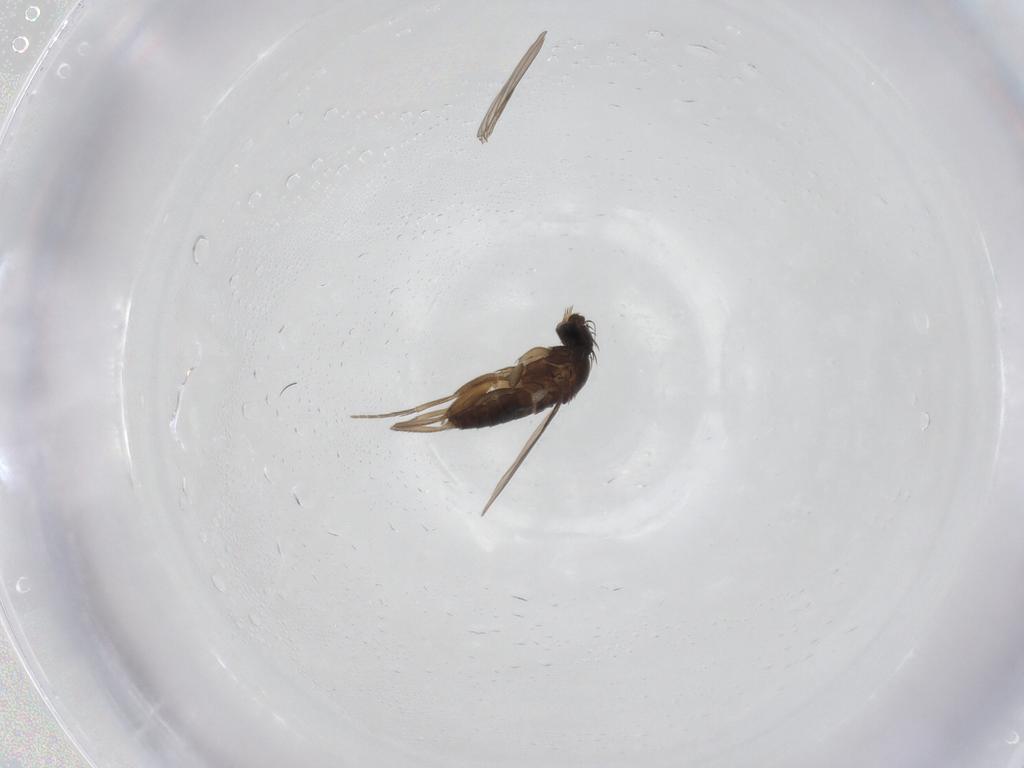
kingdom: Animalia
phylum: Arthropoda
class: Insecta
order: Diptera
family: Phoridae
